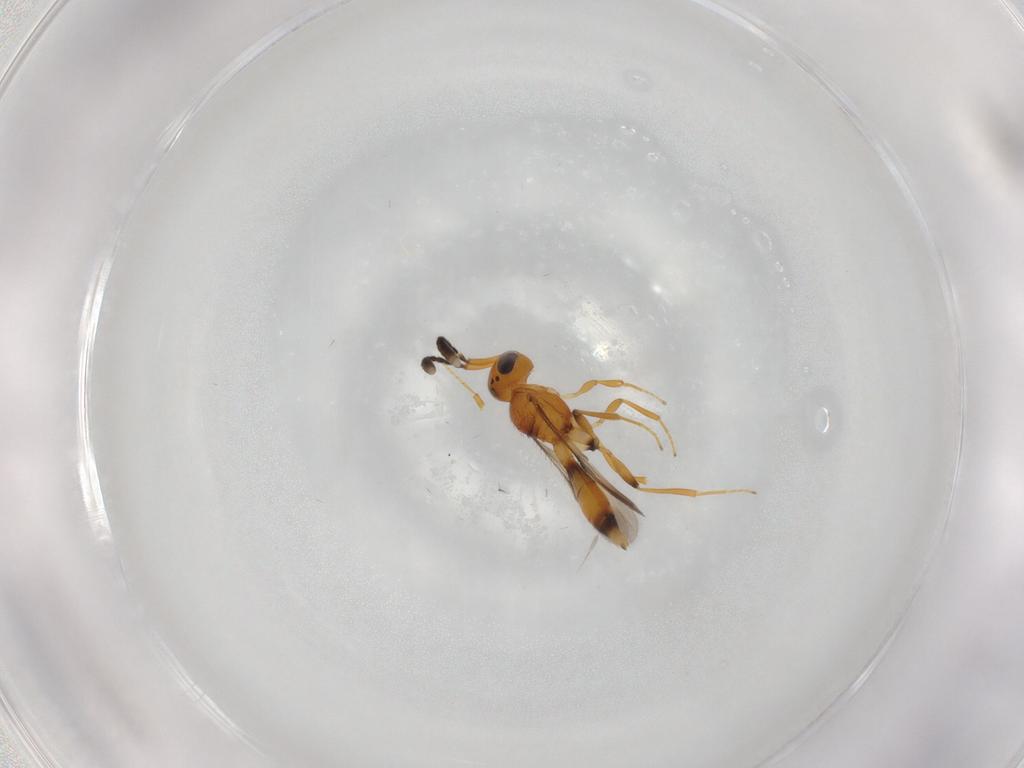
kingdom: Animalia
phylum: Arthropoda
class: Insecta
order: Hymenoptera
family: Scelionidae
